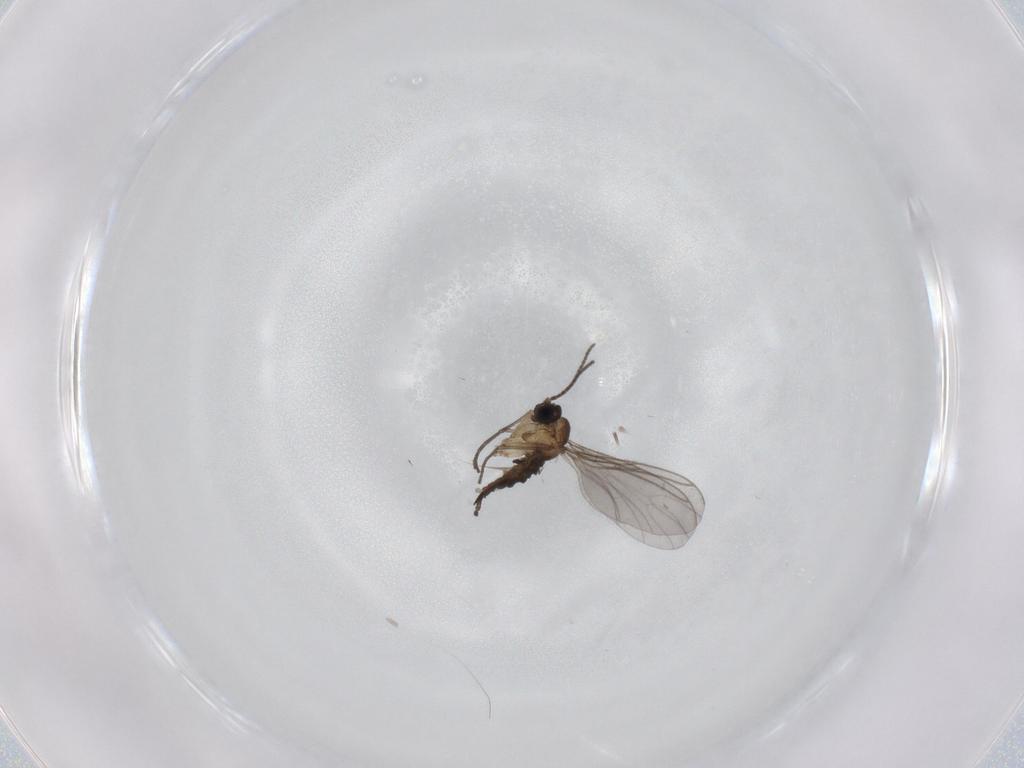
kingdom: Animalia
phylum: Arthropoda
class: Insecta
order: Diptera
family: Sciaridae
